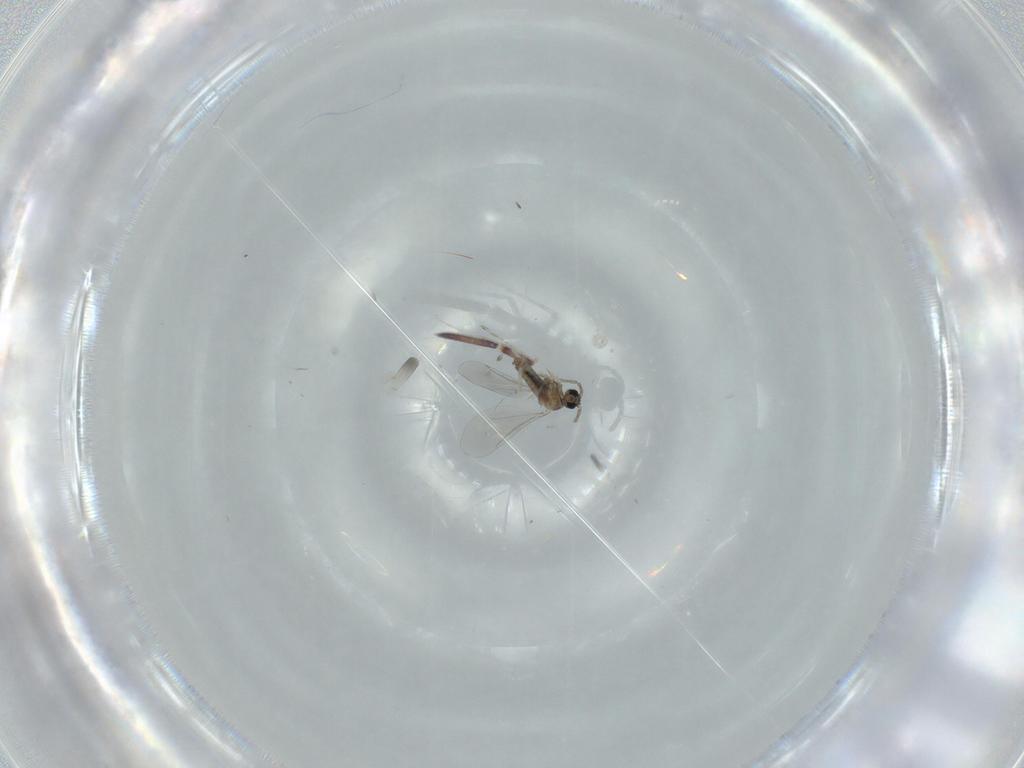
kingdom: Animalia
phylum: Arthropoda
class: Insecta
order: Diptera
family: Cecidomyiidae
